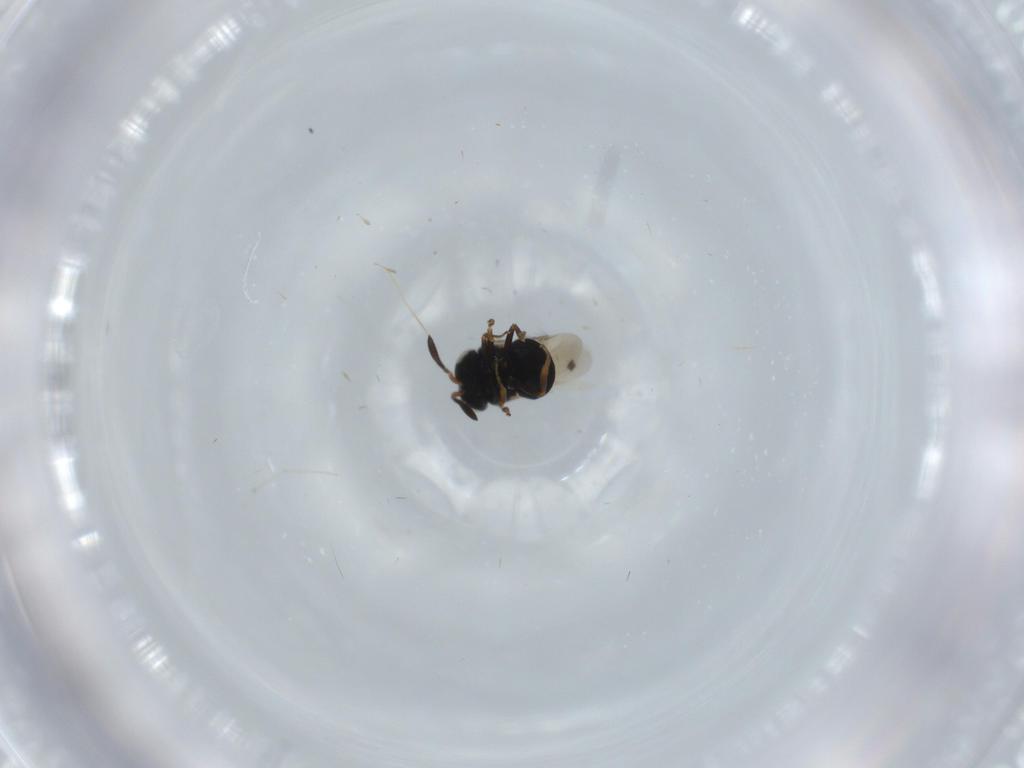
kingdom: Animalia
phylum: Arthropoda
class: Insecta
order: Hymenoptera
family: Scelionidae
